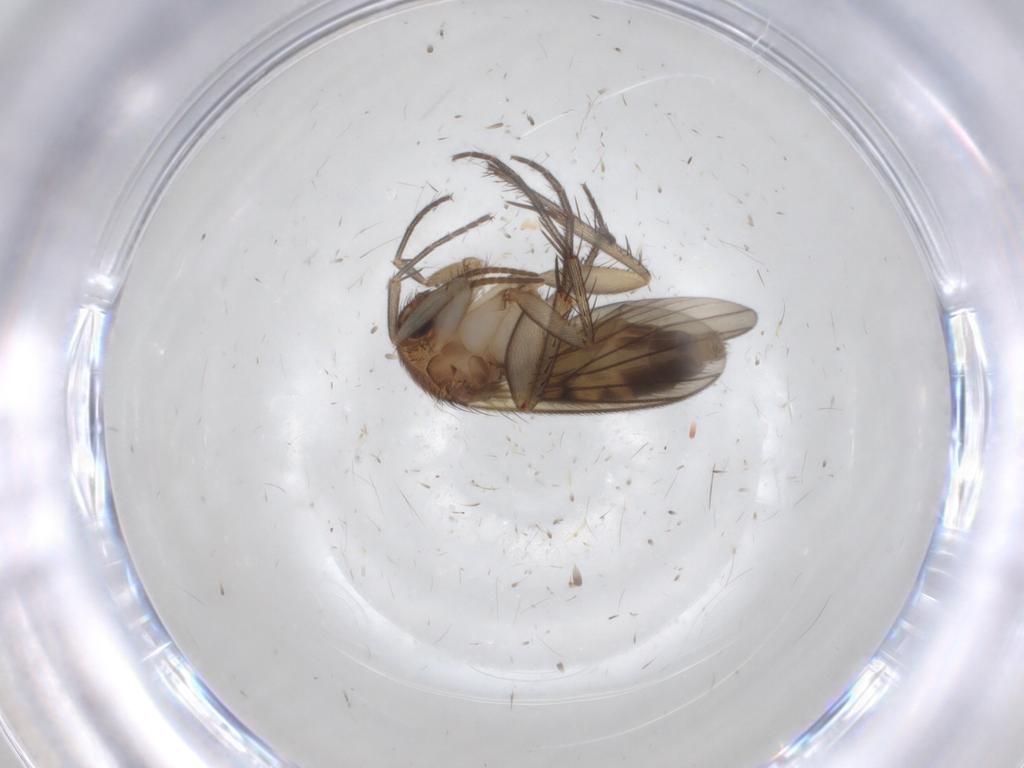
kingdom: Animalia
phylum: Arthropoda
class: Insecta
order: Diptera
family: Mycetophilidae
